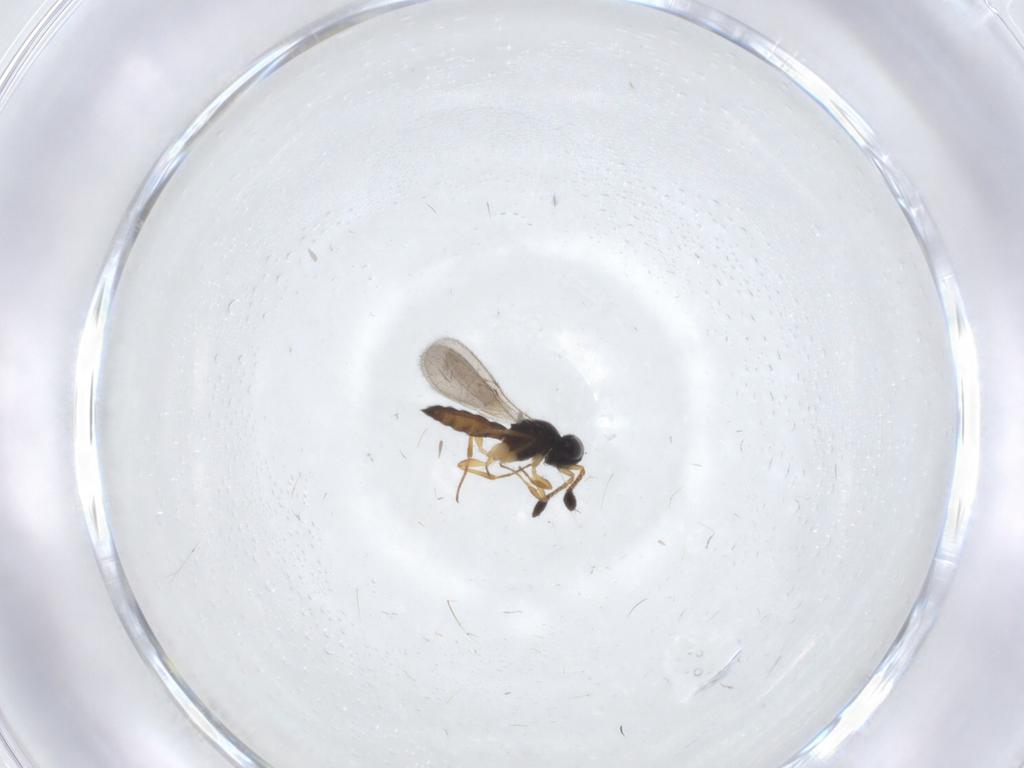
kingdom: Animalia
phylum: Arthropoda
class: Insecta
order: Hymenoptera
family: Scelionidae
